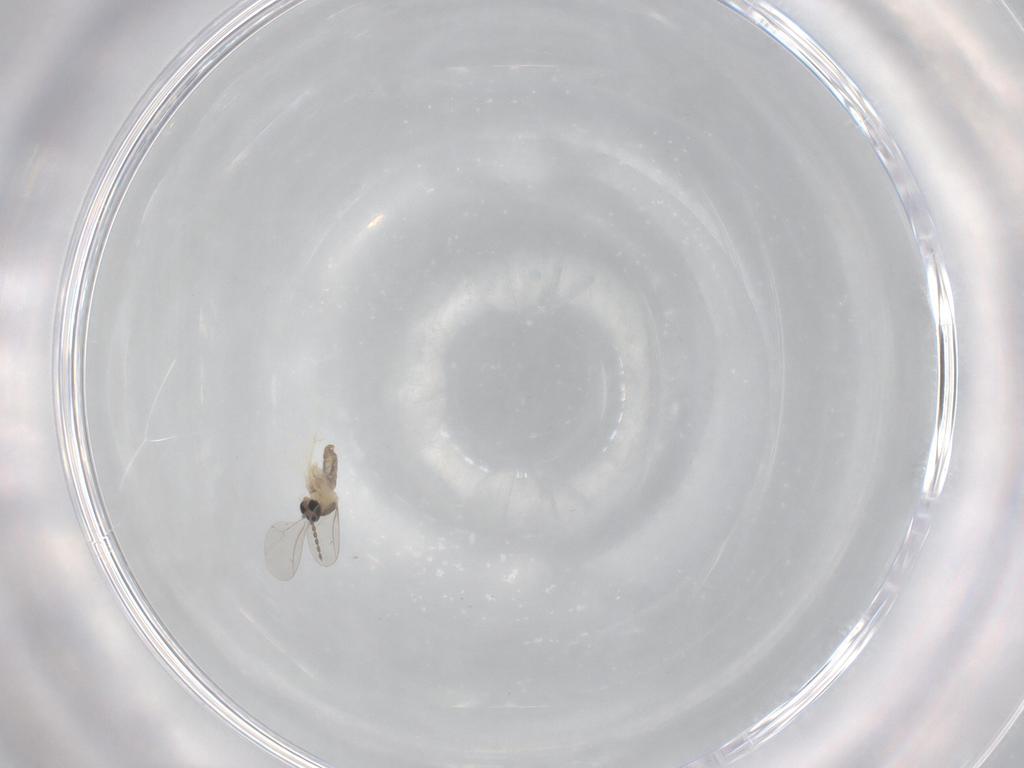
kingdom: Animalia
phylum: Arthropoda
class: Insecta
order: Diptera
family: Cecidomyiidae
